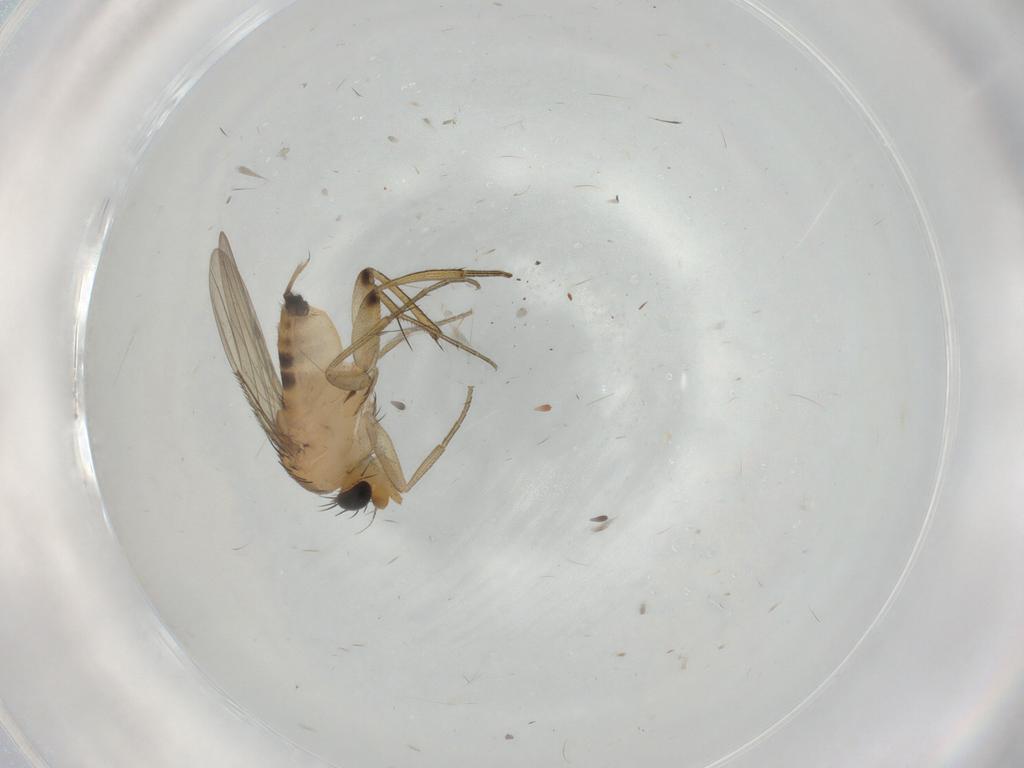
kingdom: Animalia
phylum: Arthropoda
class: Insecta
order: Diptera
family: Phoridae
